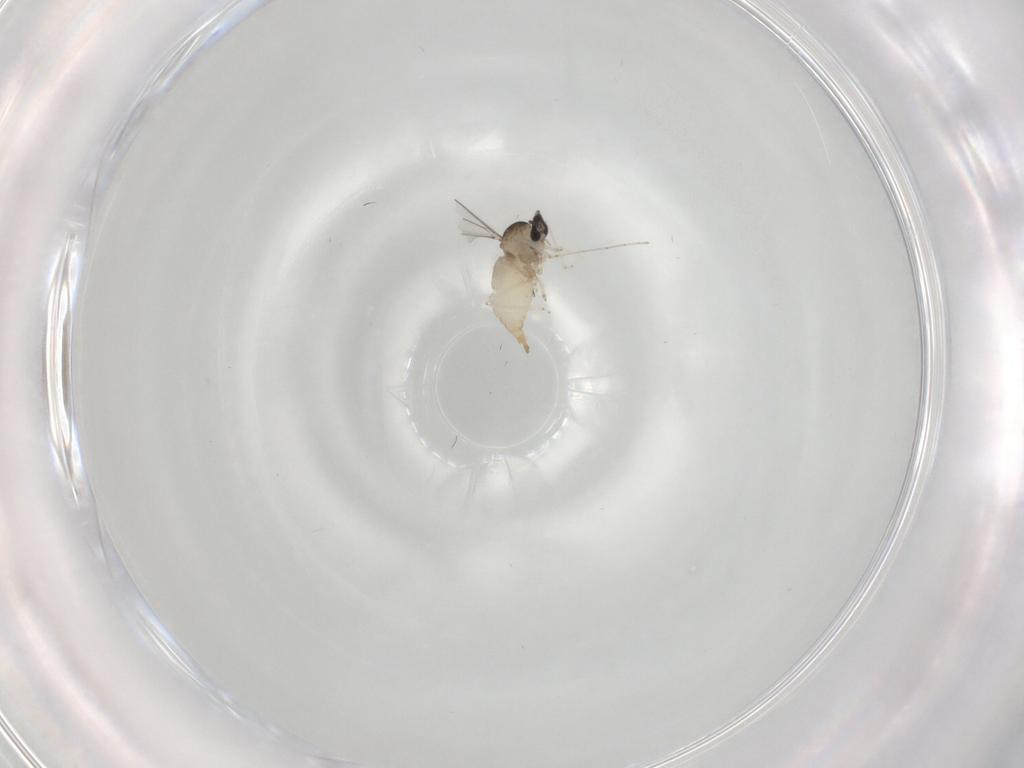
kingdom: Animalia
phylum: Arthropoda
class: Insecta
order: Diptera
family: Cecidomyiidae
